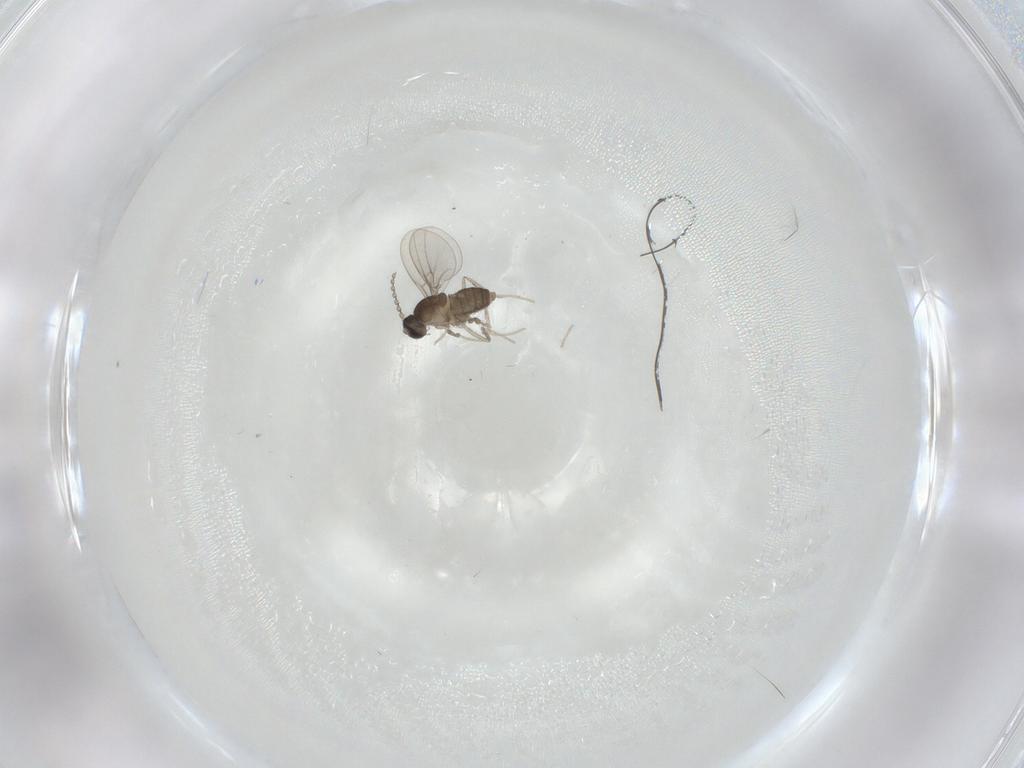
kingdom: Animalia
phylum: Arthropoda
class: Insecta
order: Diptera
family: Cecidomyiidae
